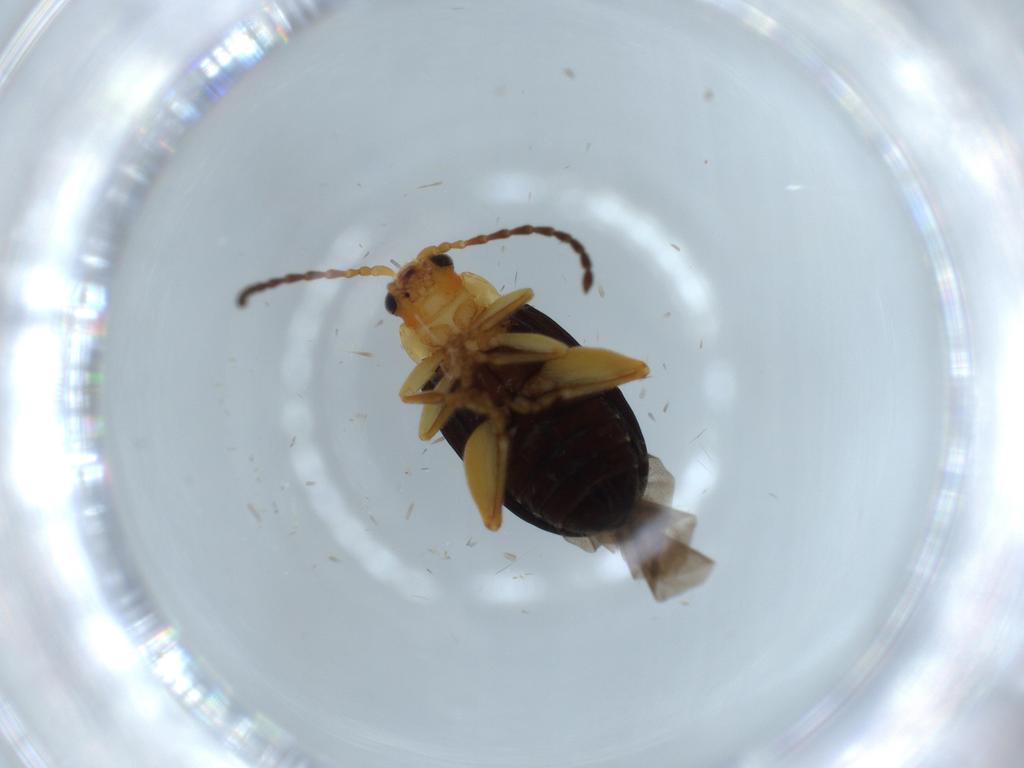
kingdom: Animalia
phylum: Arthropoda
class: Insecta
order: Coleoptera
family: Chrysomelidae
